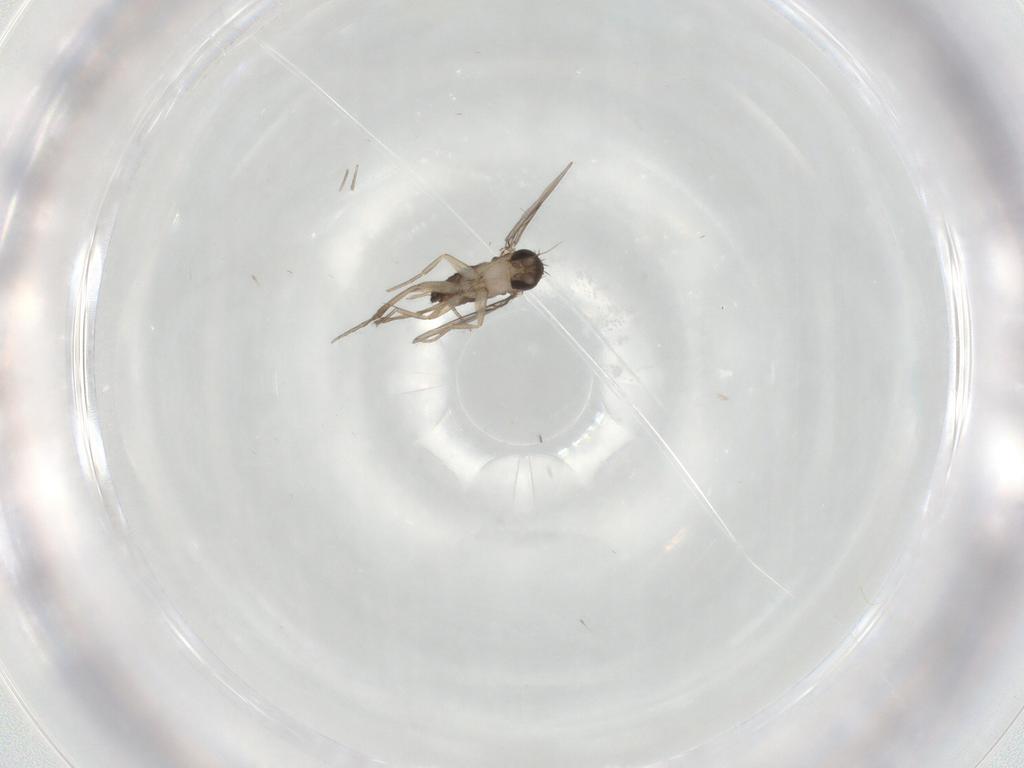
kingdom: Animalia
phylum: Arthropoda
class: Insecta
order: Diptera
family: Phoridae
